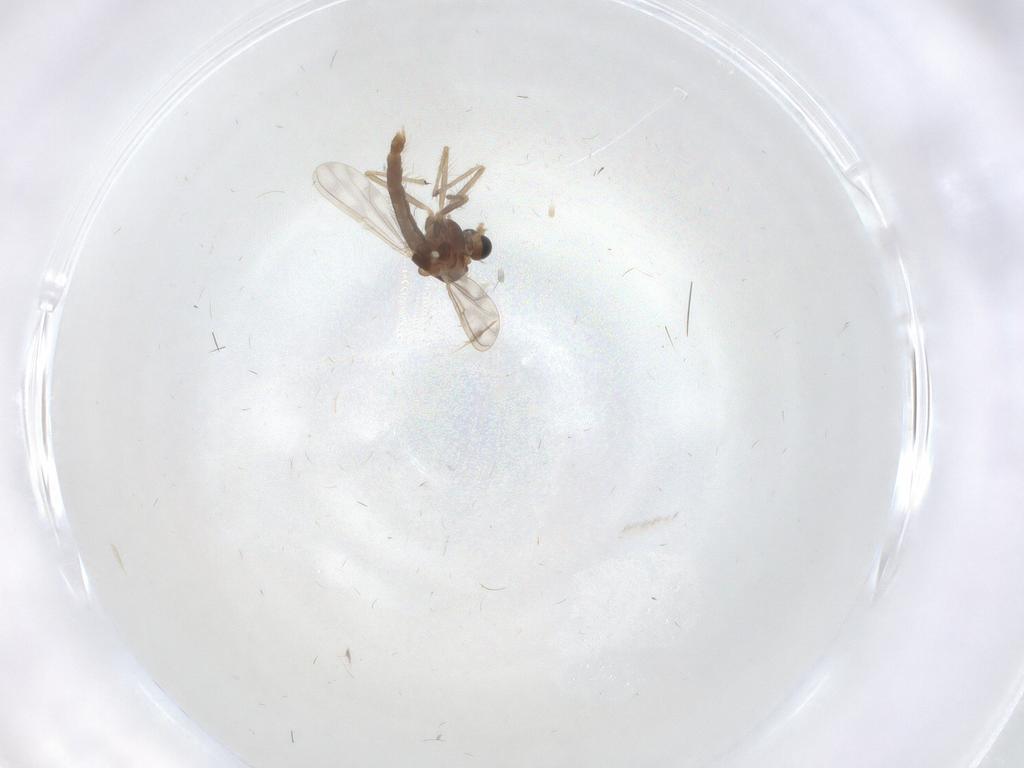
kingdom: Animalia
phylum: Arthropoda
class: Insecta
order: Diptera
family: Chironomidae
